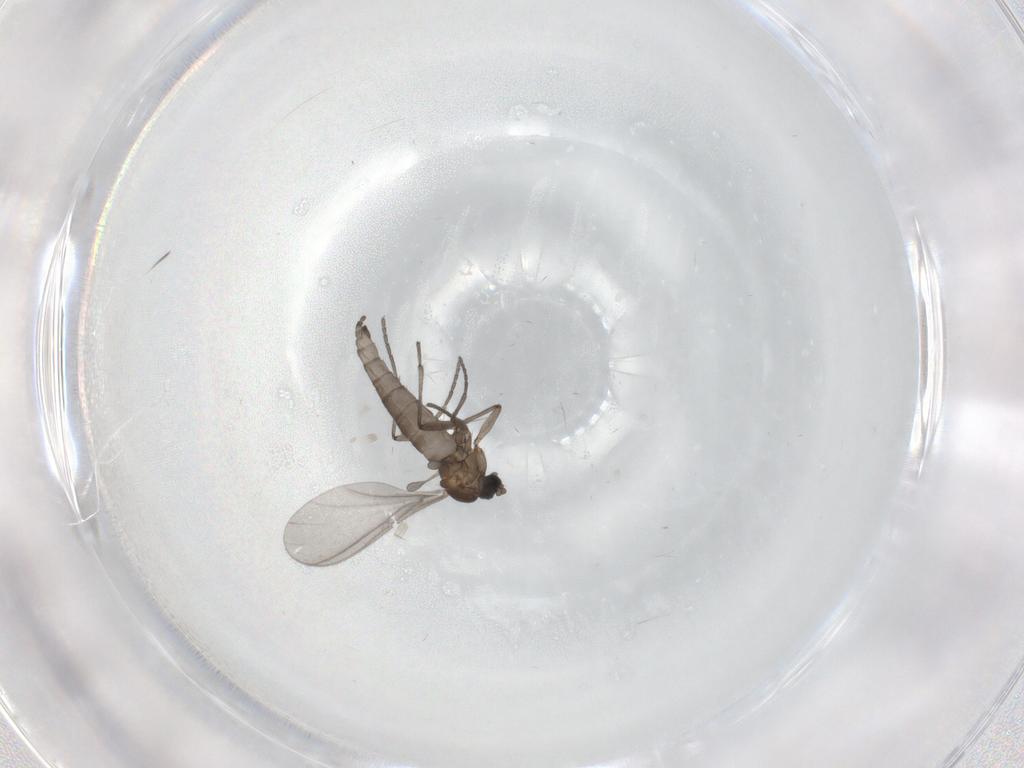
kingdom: Animalia
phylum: Arthropoda
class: Insecta
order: Diptera
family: Sciaridae
